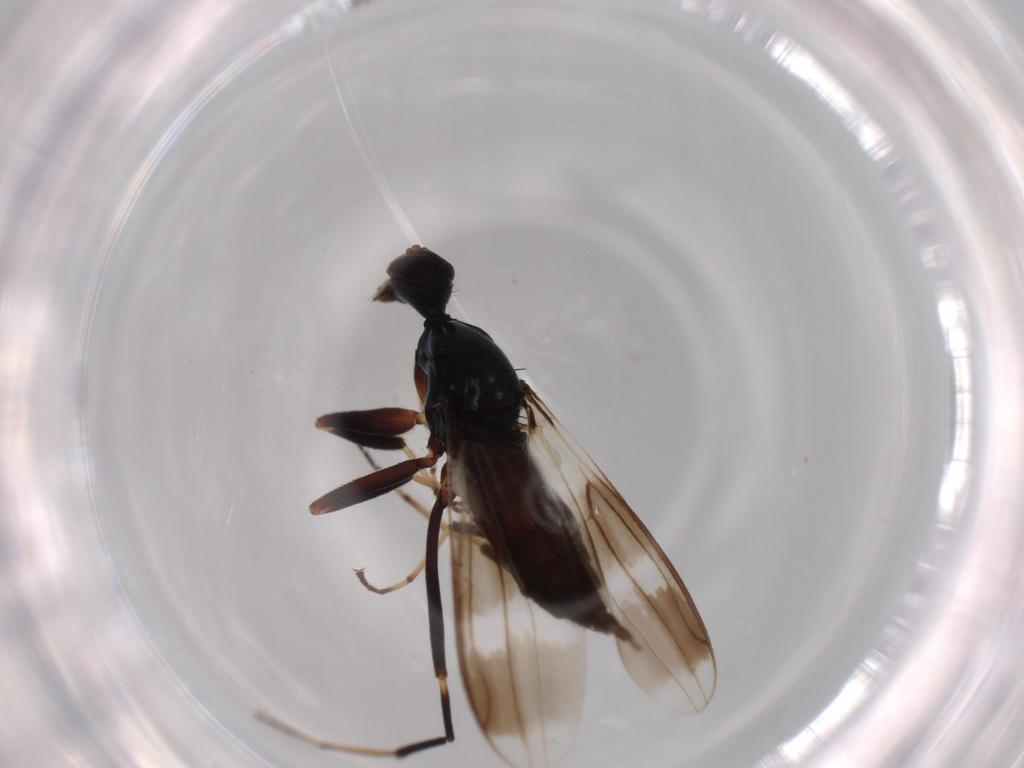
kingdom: Animalia
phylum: Arthropoda
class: Insecta
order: Diptera
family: Hybotidae
